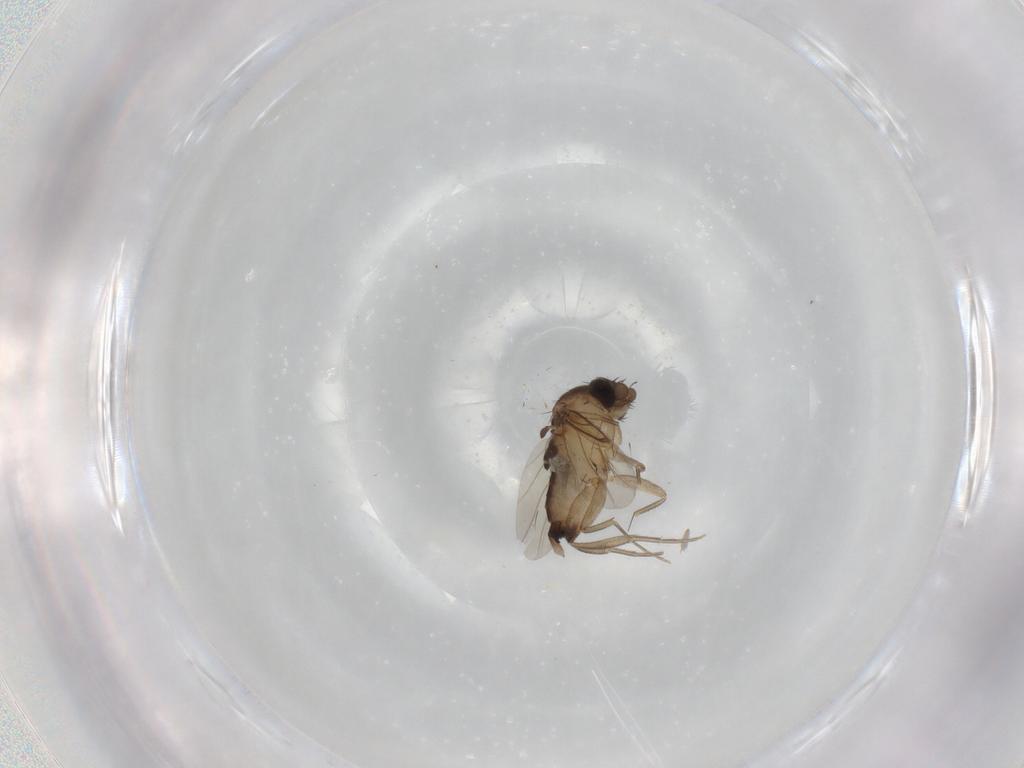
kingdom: Animalia
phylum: Arthropoda
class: Insecta
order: Diptera
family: Phoridae
